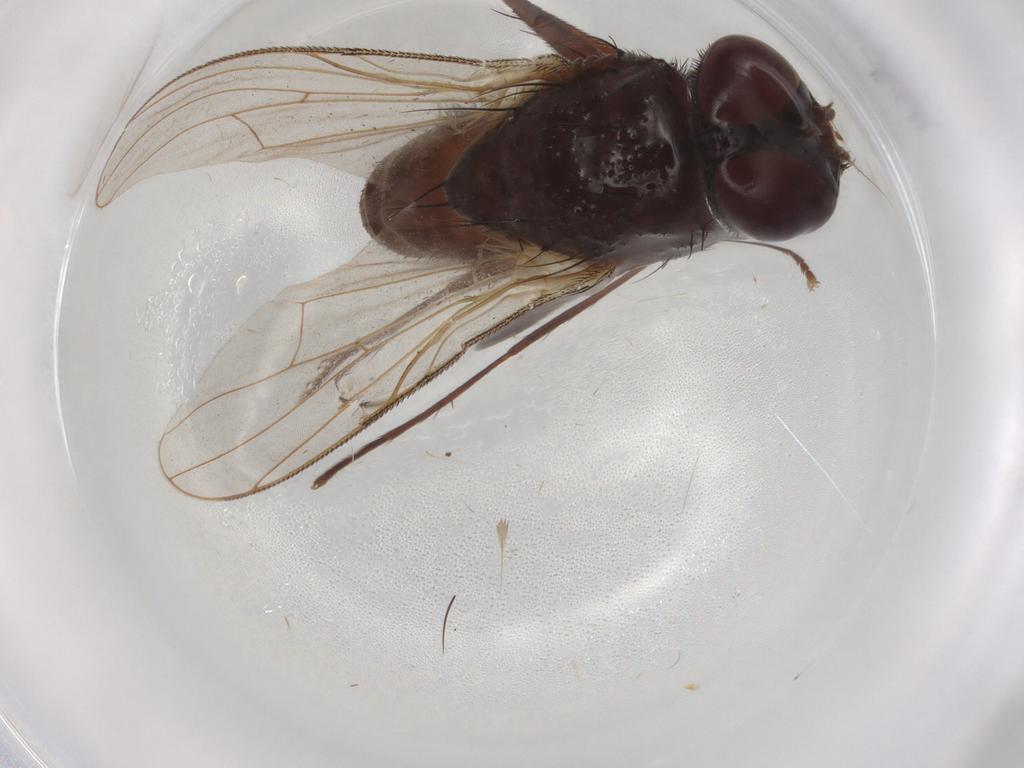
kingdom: Animalia
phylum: Arthropoda
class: Insecta
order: Diptera
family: Muscidae
